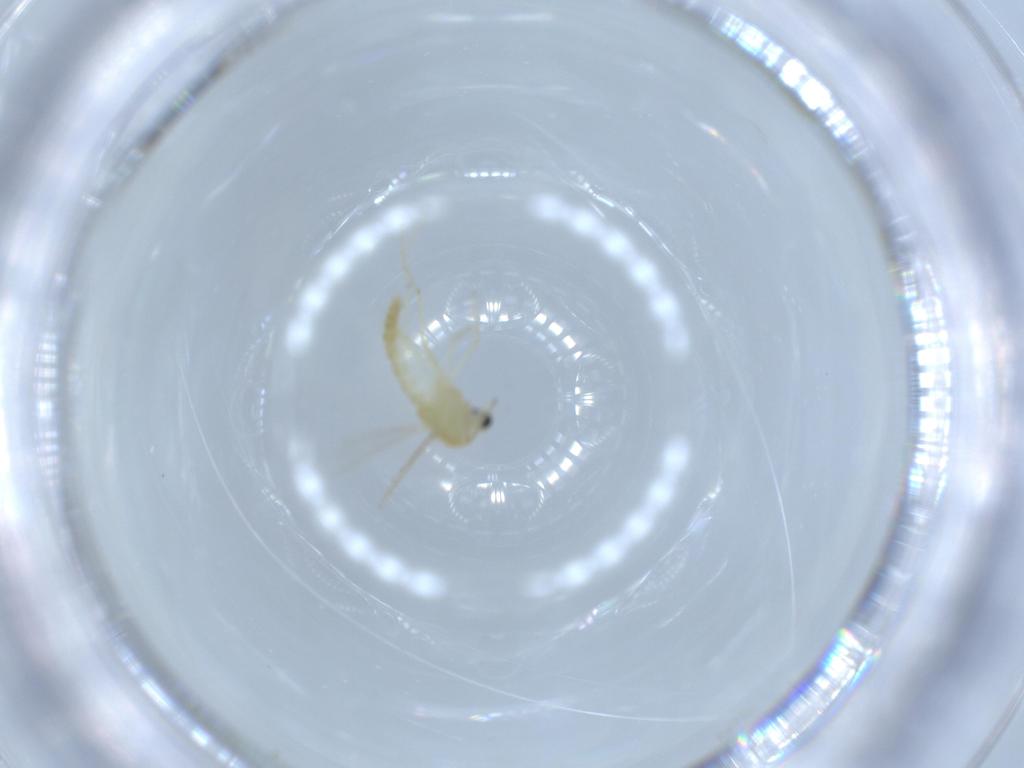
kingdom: Animalia
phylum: Arthropoda
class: Insecta
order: Diptera
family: Chironomidae
